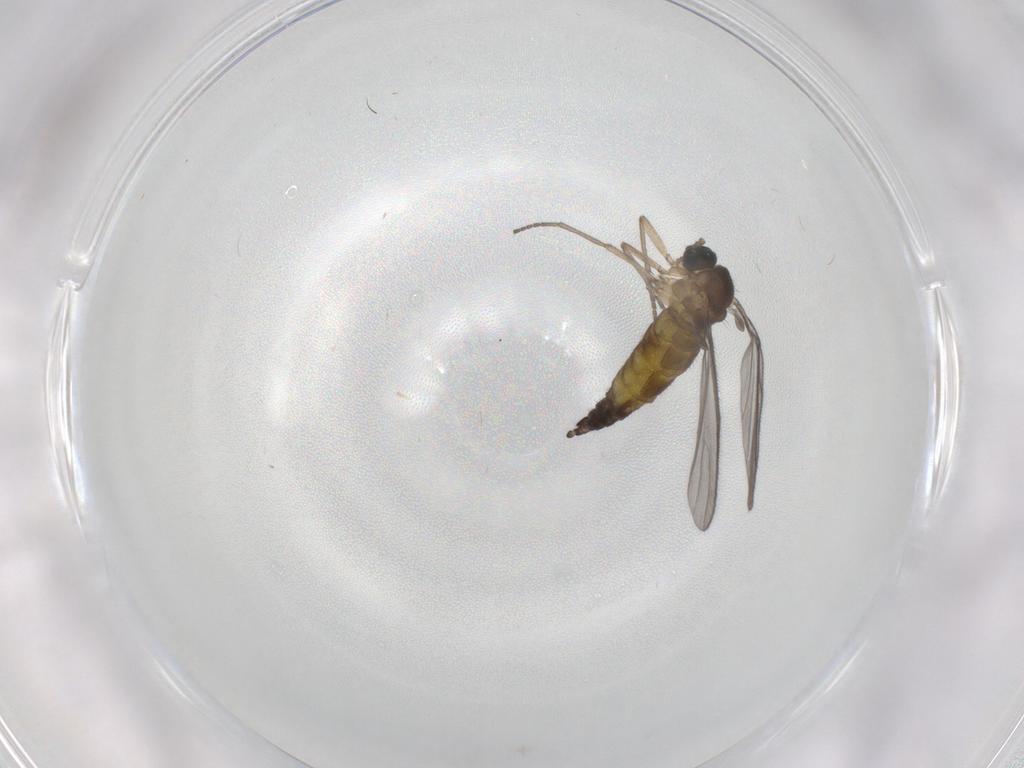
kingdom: Animalia
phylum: Arthropoda
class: Insecta
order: Diptera
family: Sciaridae
